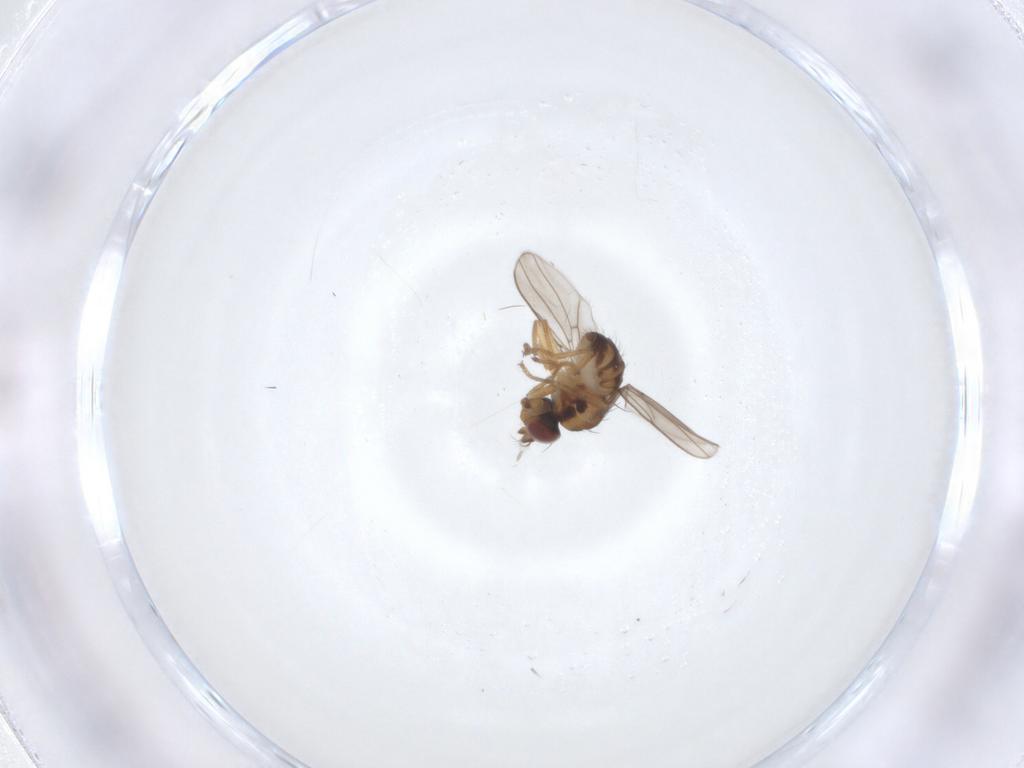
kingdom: Animalia
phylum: Arthropoda
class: Insecta
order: Diptera
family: Ephydridae
